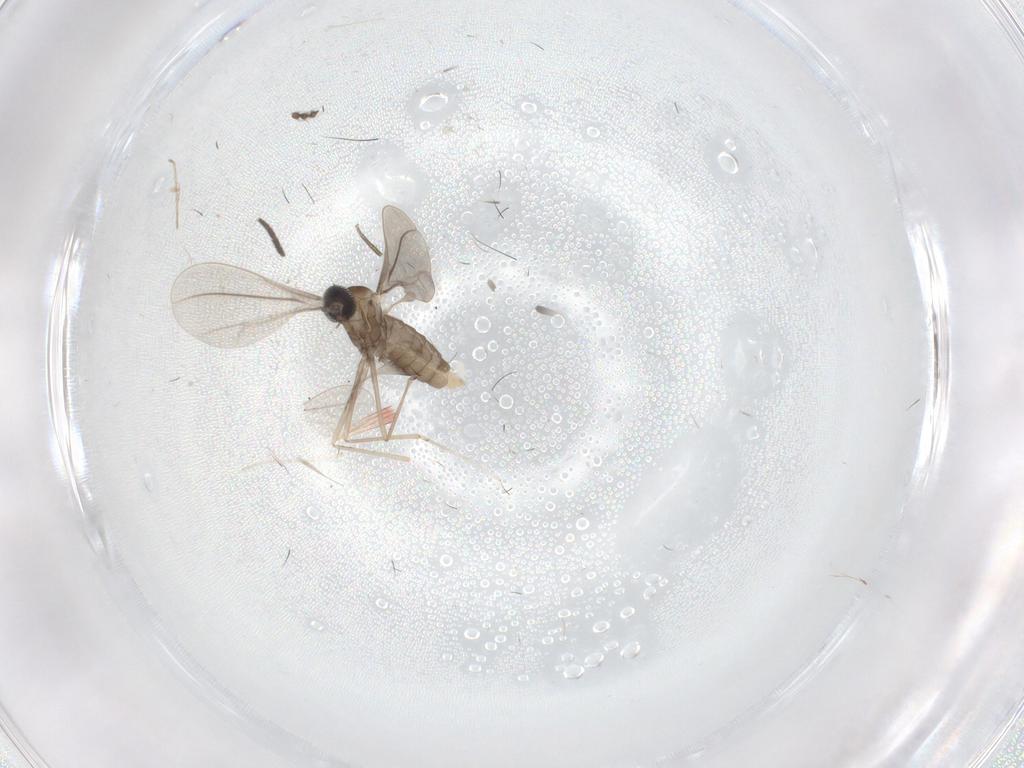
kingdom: Animalia
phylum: Arthropoda
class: Insecta
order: Diptera
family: Cecidomyiidae
